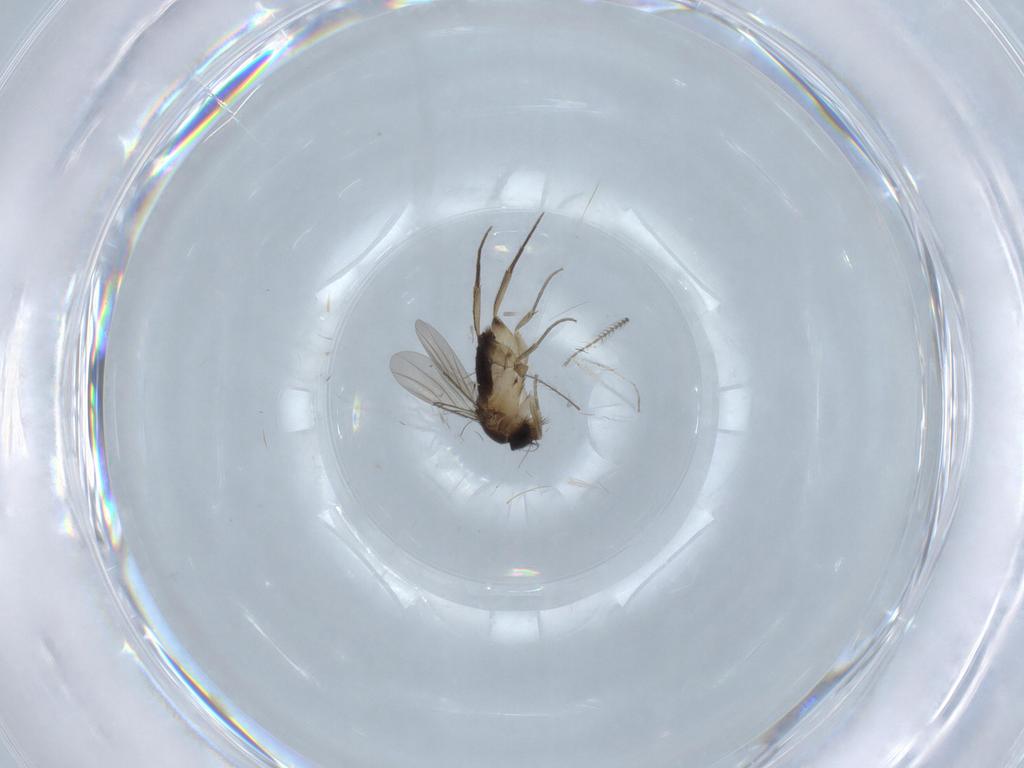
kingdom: Animalia
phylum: Arthropoda
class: Insecta
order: Diptera
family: Phoridae
